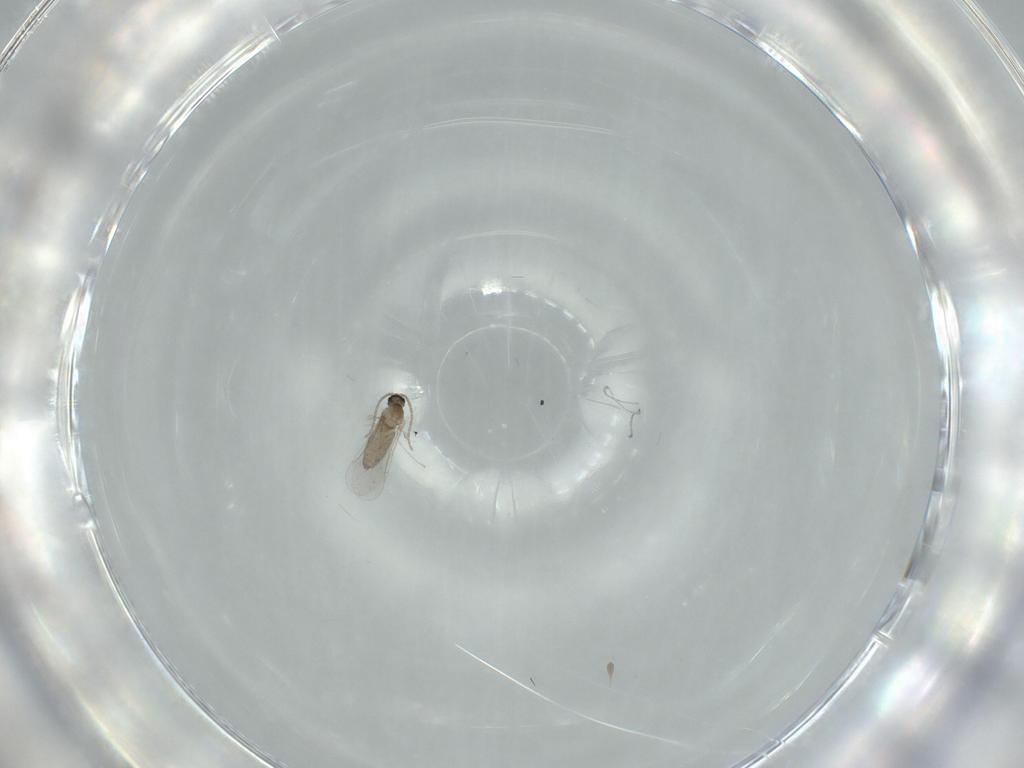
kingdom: Animalia
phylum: Arthropoda
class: Insecta
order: Diptera
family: Cecidomyiidae
